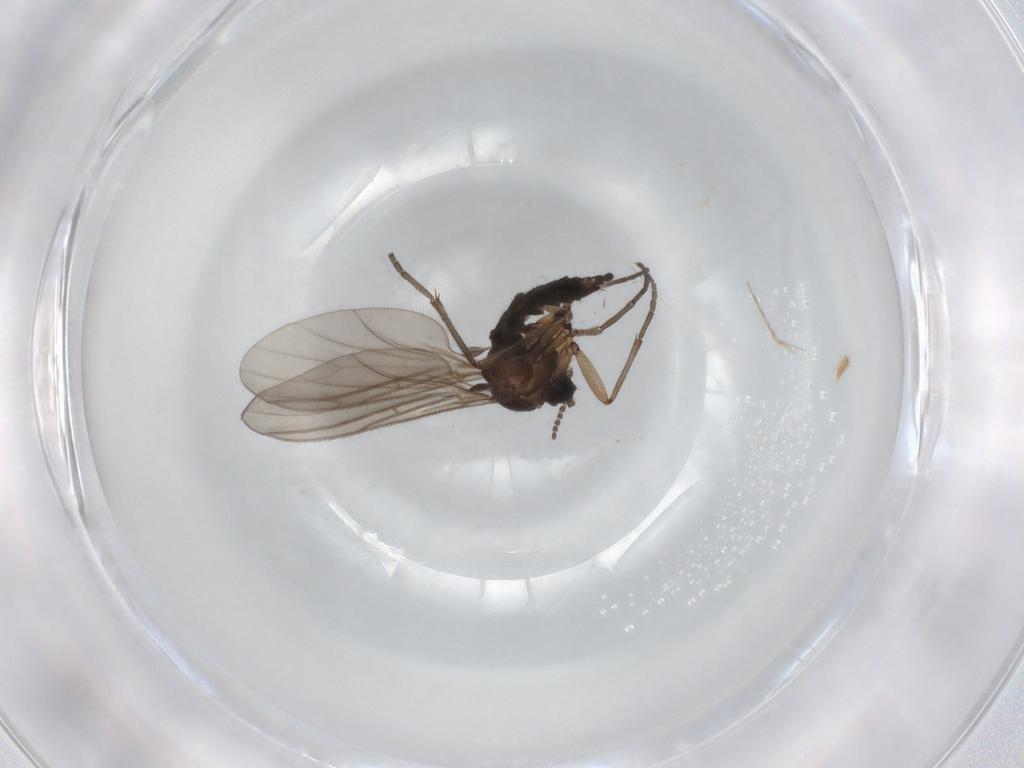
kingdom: Animalia
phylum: Arthropoda
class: Insecta
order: Diptera
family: Sciaridae
